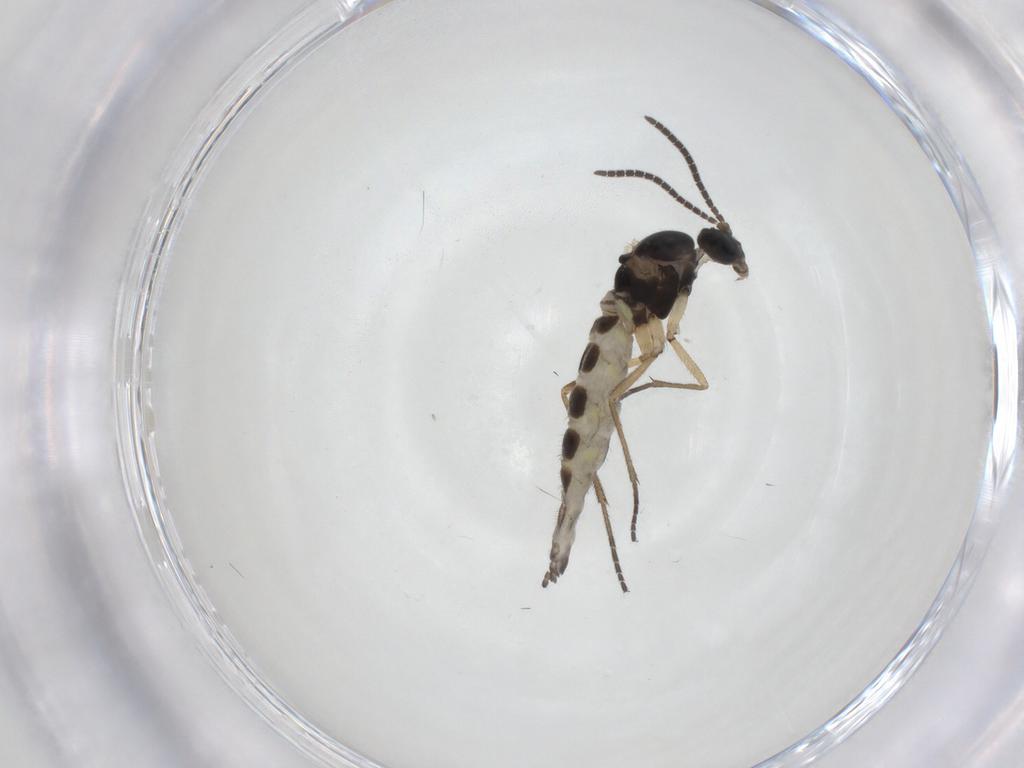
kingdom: Animalia
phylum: Arthropoda
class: Insecta
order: Diptera
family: Sciaridae
